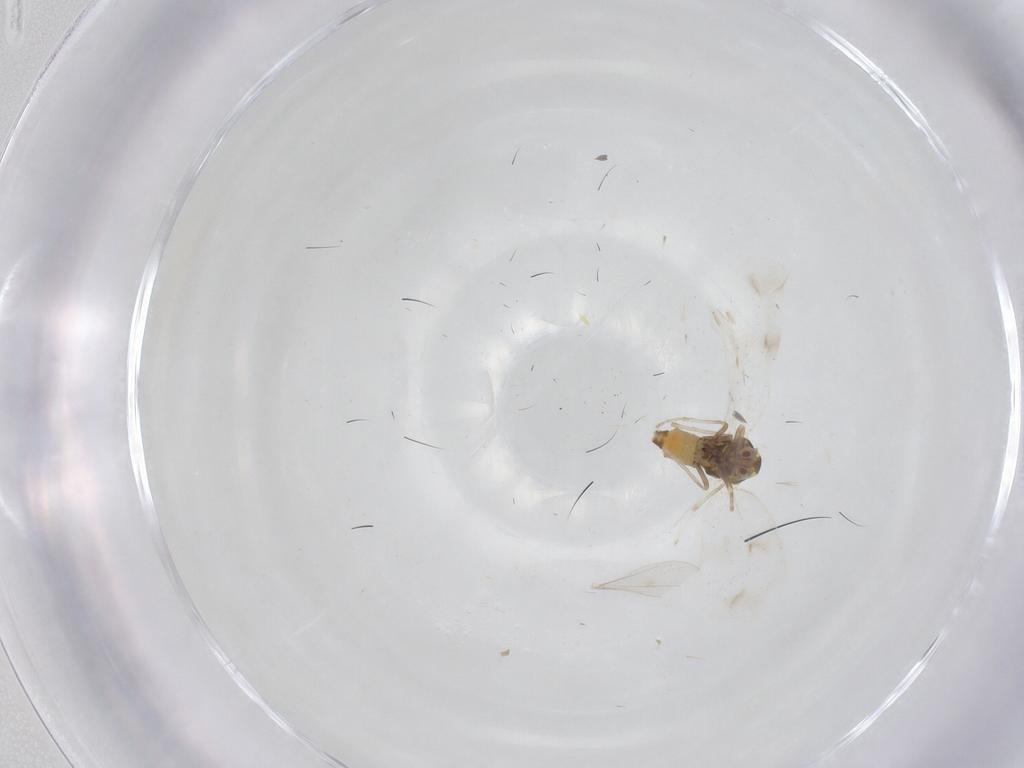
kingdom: Animalia
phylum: Arthropoda
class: Insecta
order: Hemiptera
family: Aleyrodidae
